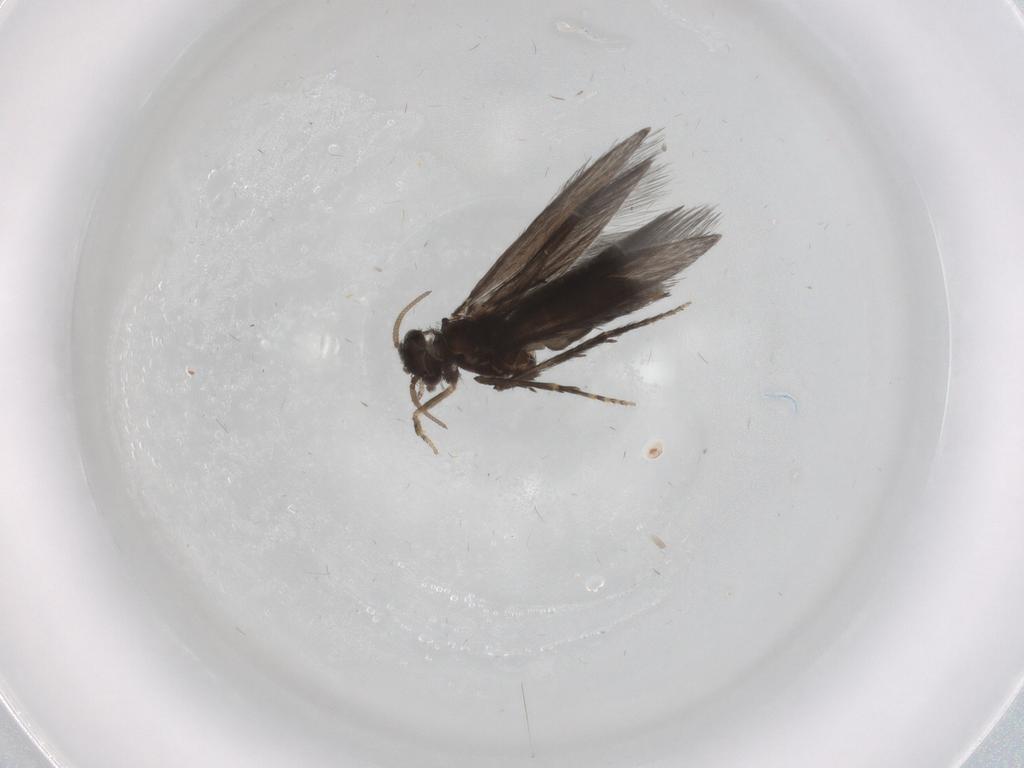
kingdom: Animalia
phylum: Arthropoda
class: Insecta
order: Trichoptera
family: Hydroptilidae
